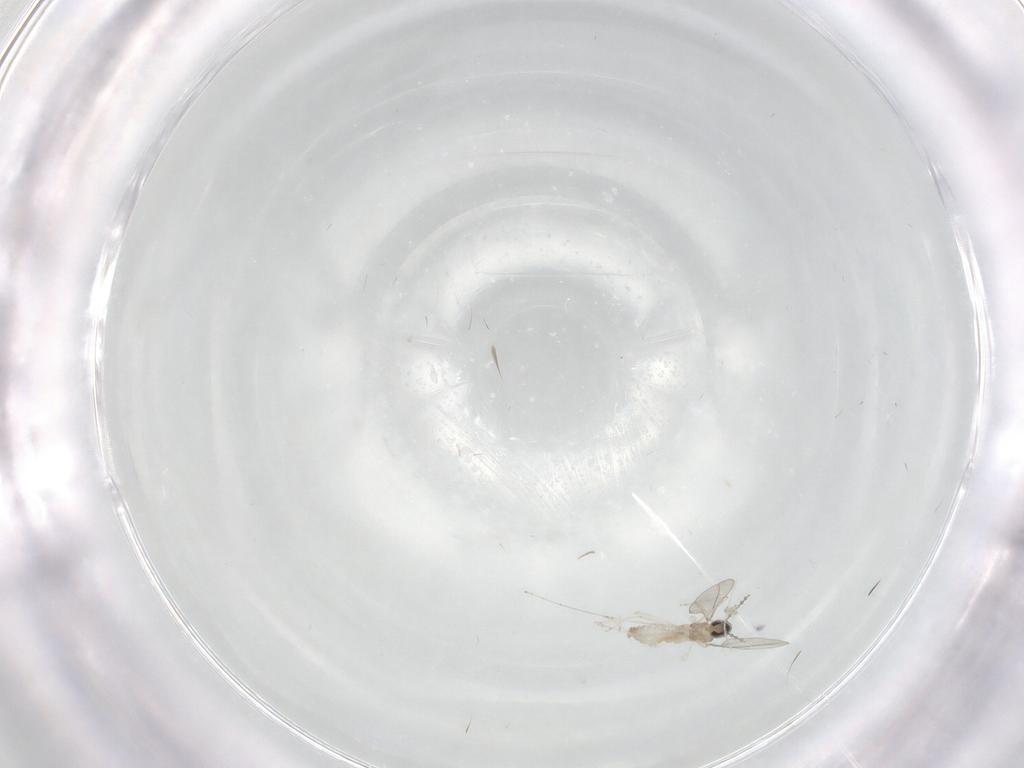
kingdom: Animalia
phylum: Arthropoda
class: Insecta
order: Diptera
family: Chironomidae
